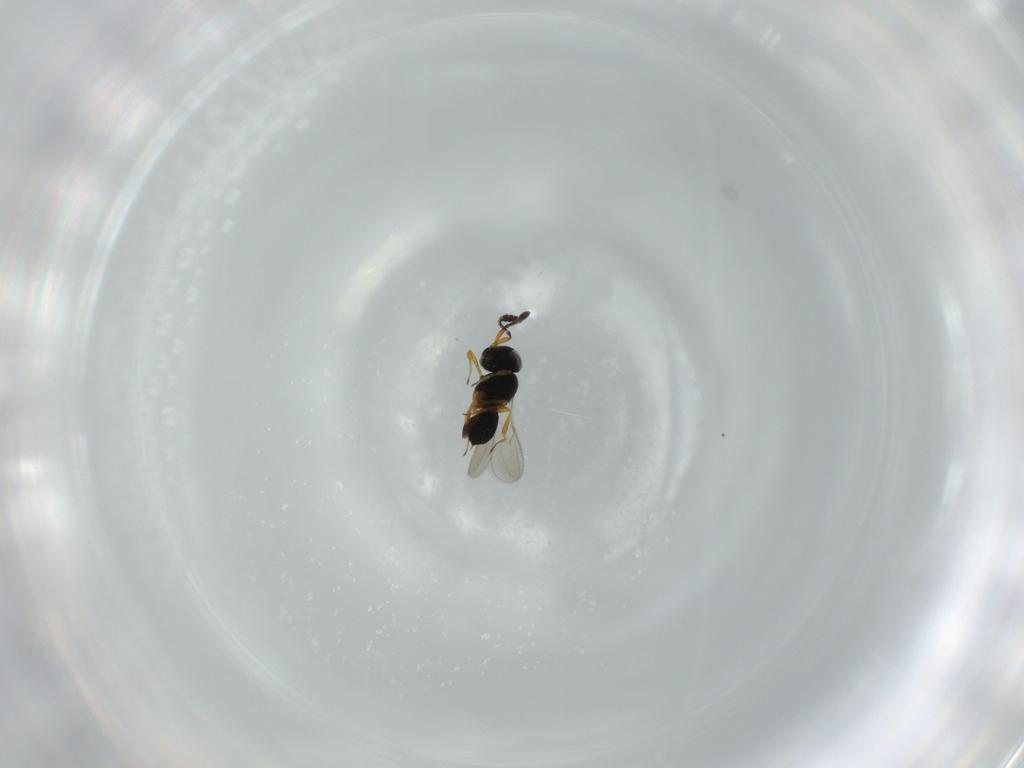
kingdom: Animalia
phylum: Arthropoda
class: Insecta
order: Hymenoptera
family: Scelionidae
